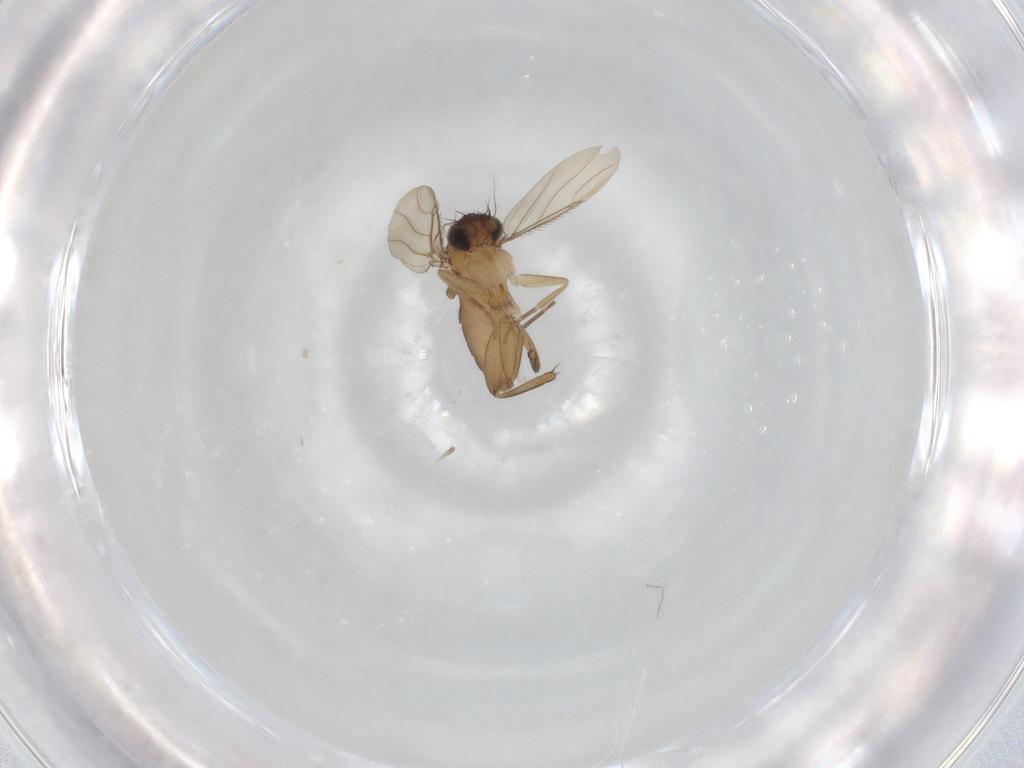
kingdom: Animalia
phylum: Arthropoda
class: Insecta
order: Diptera
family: Phoridae
